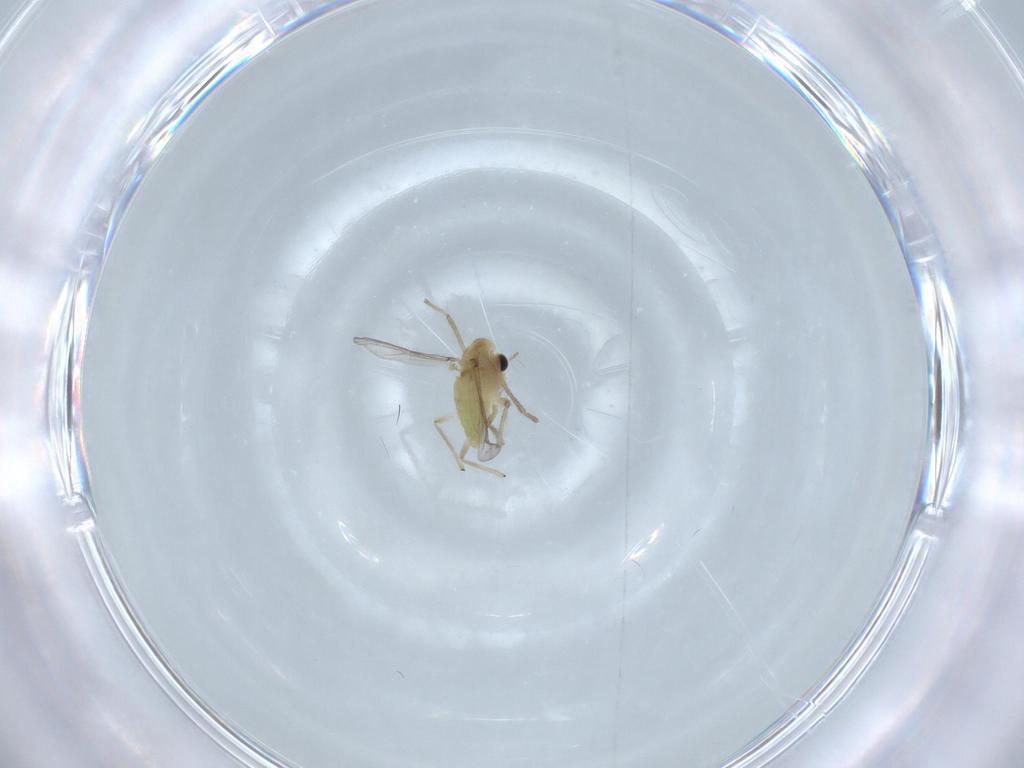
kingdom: Animalia
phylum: Arthropoda
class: Insecta
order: Diptera
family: Chironomidae
